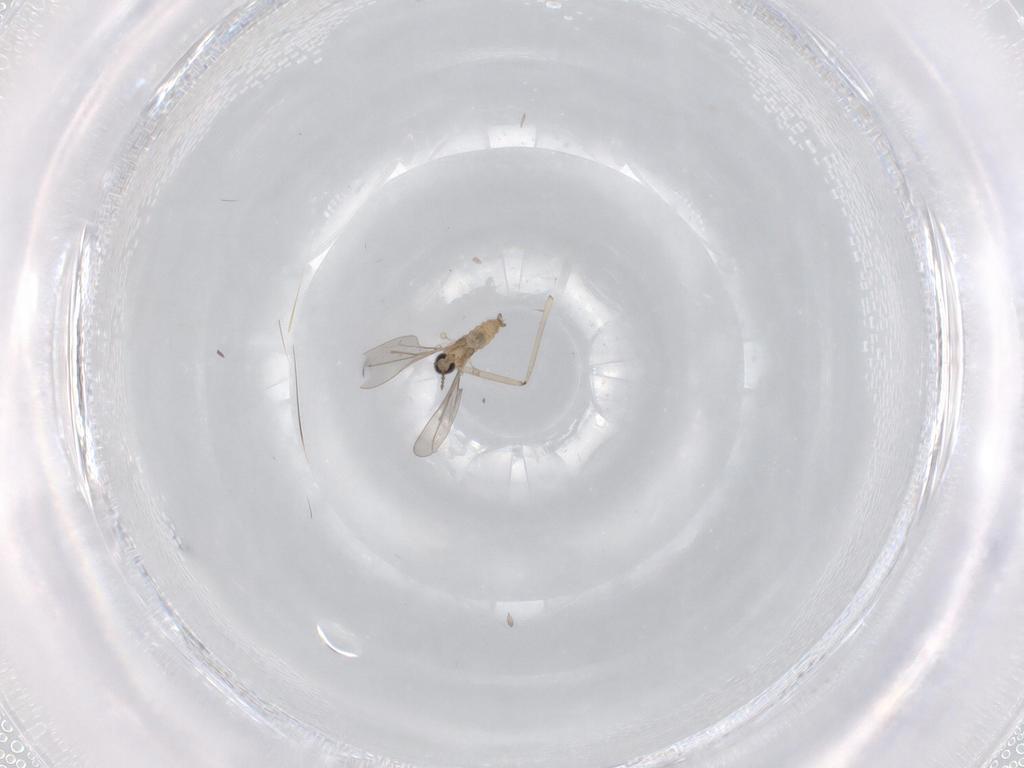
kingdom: Animalia
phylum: Arthropoda
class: Insecta
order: Diptera
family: Cecidomyiidae
